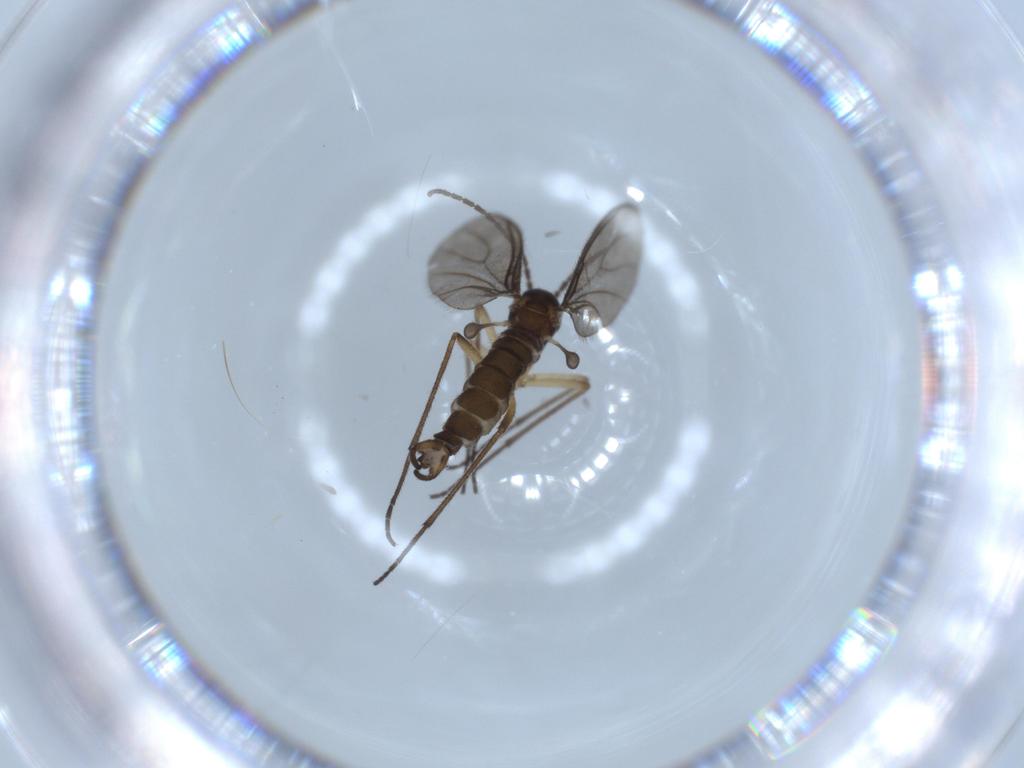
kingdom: Animalia
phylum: Arthropoda
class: Insecta
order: Diptera
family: Sciaridae
